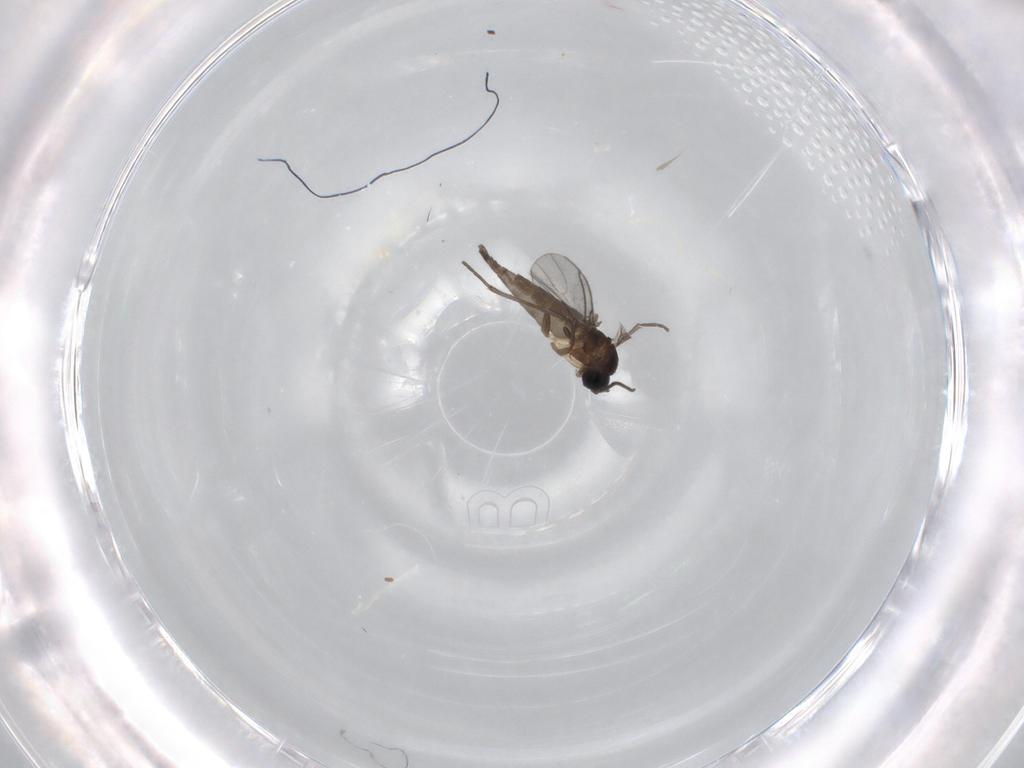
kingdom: Animalia
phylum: Arthropoda
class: Insecta
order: Diptera
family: Sciaridae
